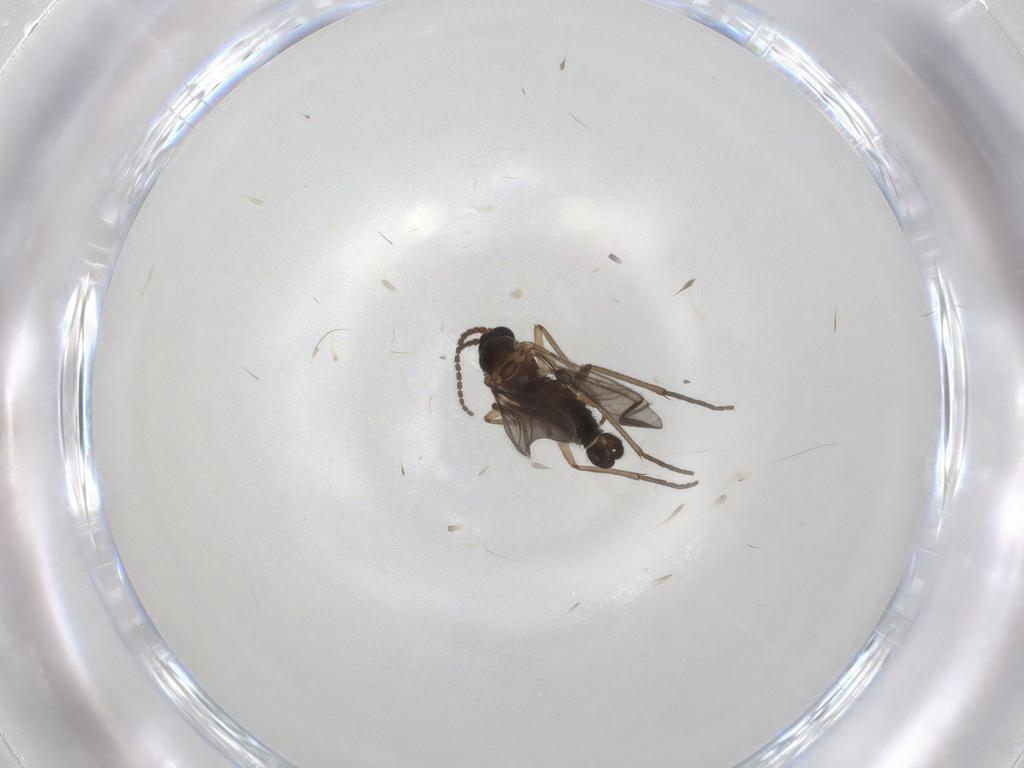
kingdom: Animalia
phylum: Arthropoda
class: Insecta
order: Diptera
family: Sciaridae
